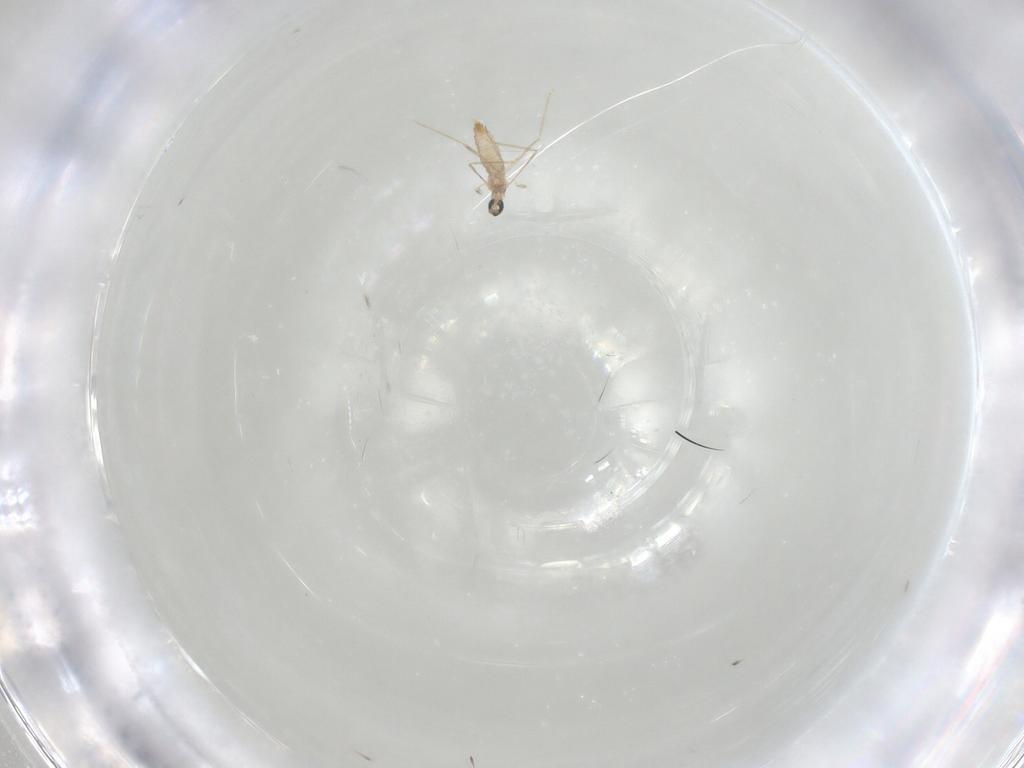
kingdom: Animalia
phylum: Arthropoda
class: Insecta
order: Diptera
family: Cecidomyiidae
